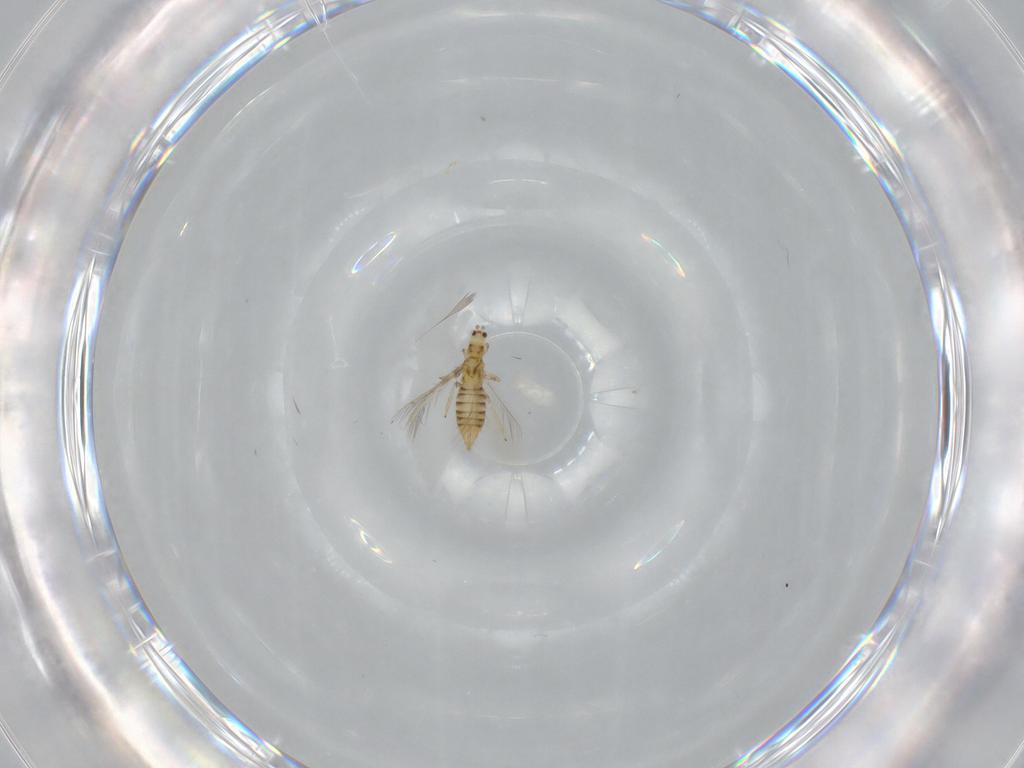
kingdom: Animalia
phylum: Arthropoda
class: Insecta
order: Thysanoptera
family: Thripidae
